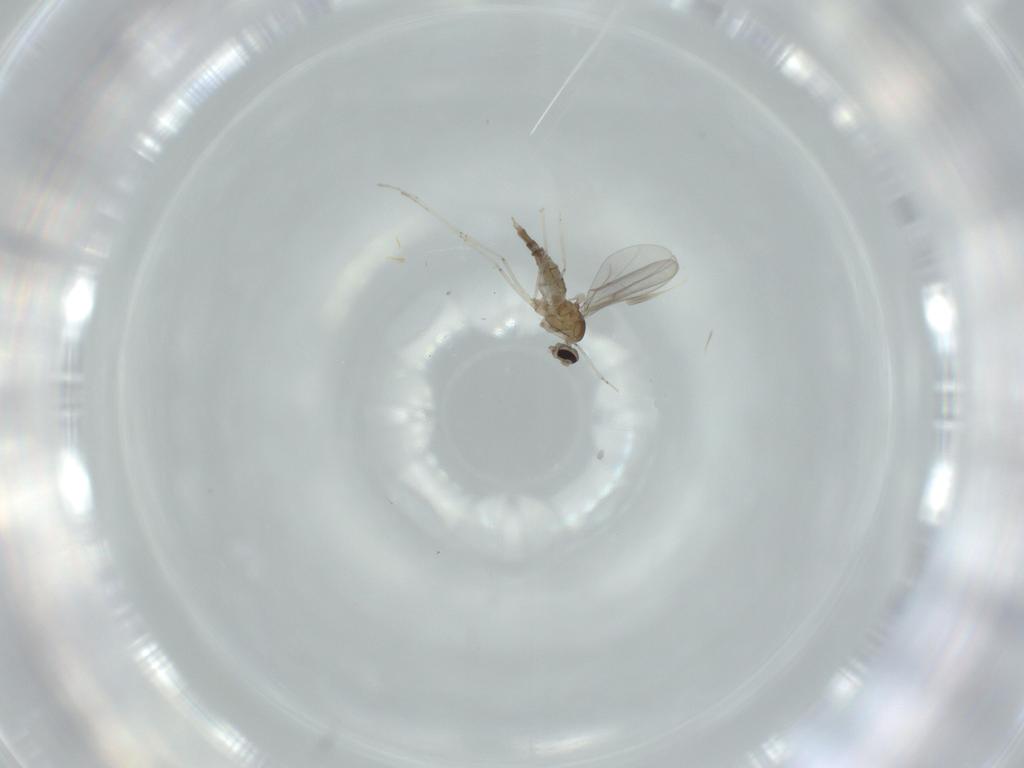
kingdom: Animalia
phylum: Arthropoda
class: Insecta
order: Diptera
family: Cecidomyiidae
